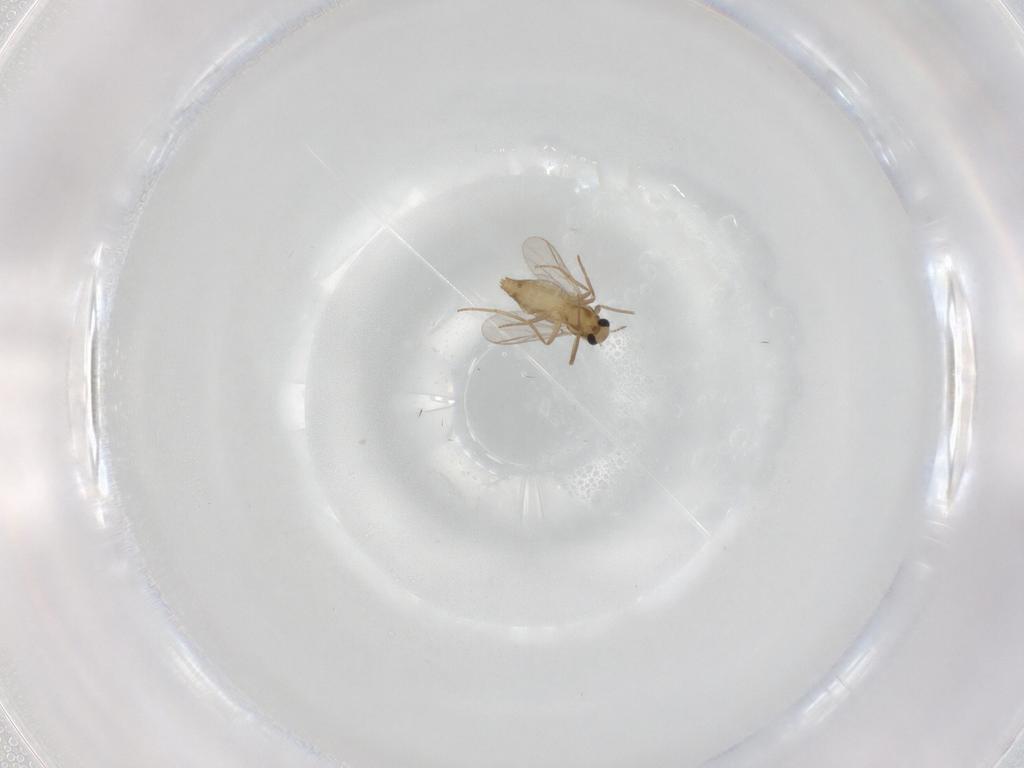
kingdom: Animalia
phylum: Arthropoda
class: Insecta
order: Diptera
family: Chironomidae
